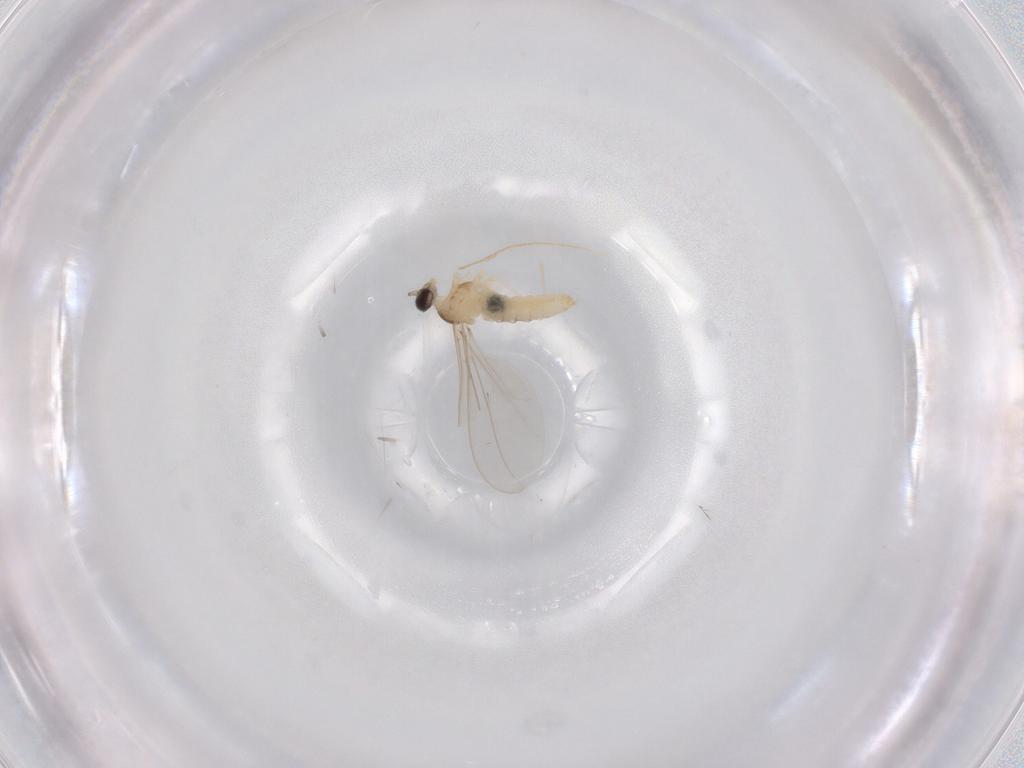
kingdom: Animalia
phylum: Arthropoda
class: Insecta
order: Diptera
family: Cecidomyiidae
